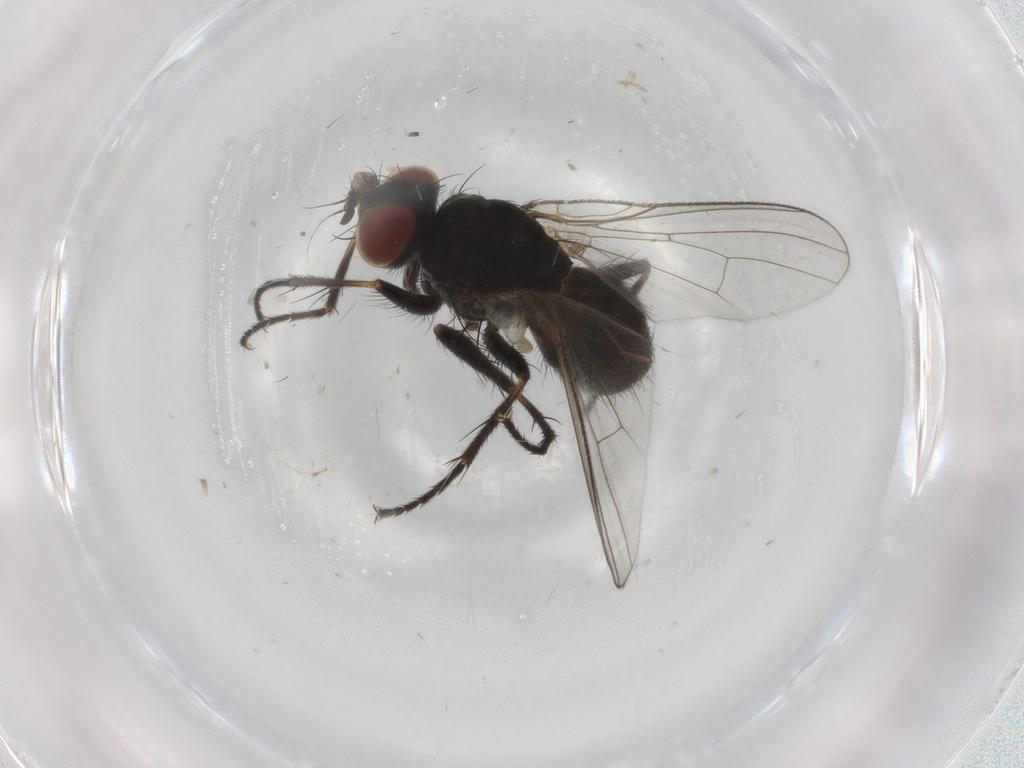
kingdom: Animalia
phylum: Arthropoda
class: Insecta
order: Diptera
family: Muscidae
